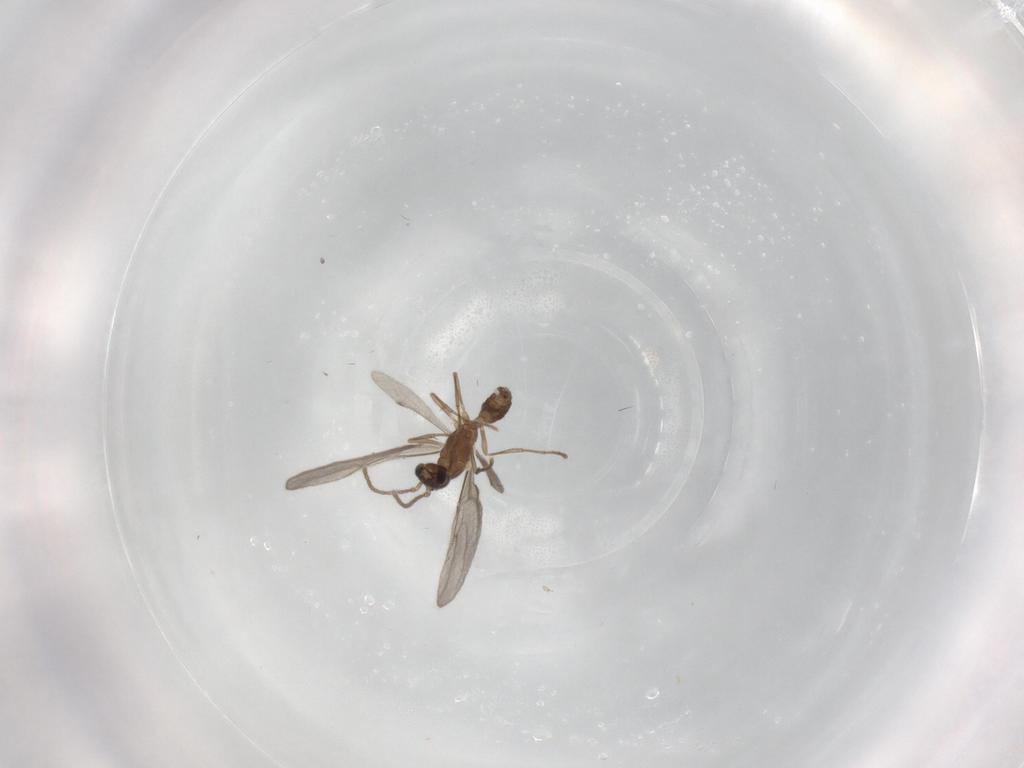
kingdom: Animalia
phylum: Arthropoda
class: Insecta
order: Hymenoptera
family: Formicidae
